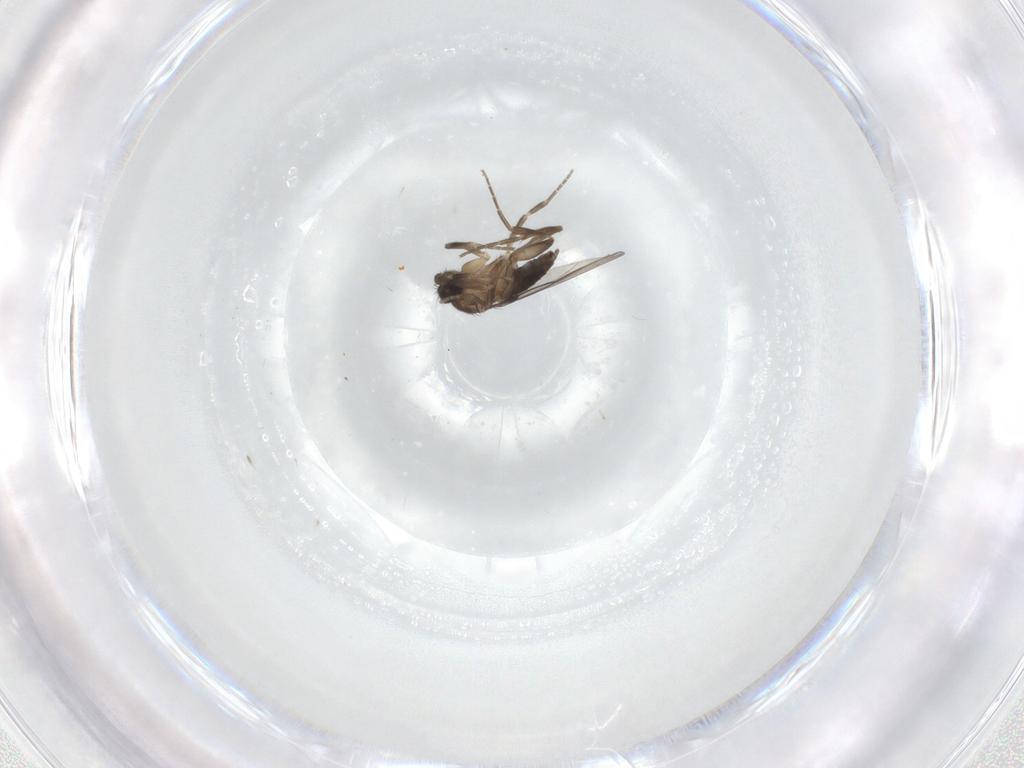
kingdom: Animalia
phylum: Arthropoda
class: Insecta
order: Diptera
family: Phoridae
